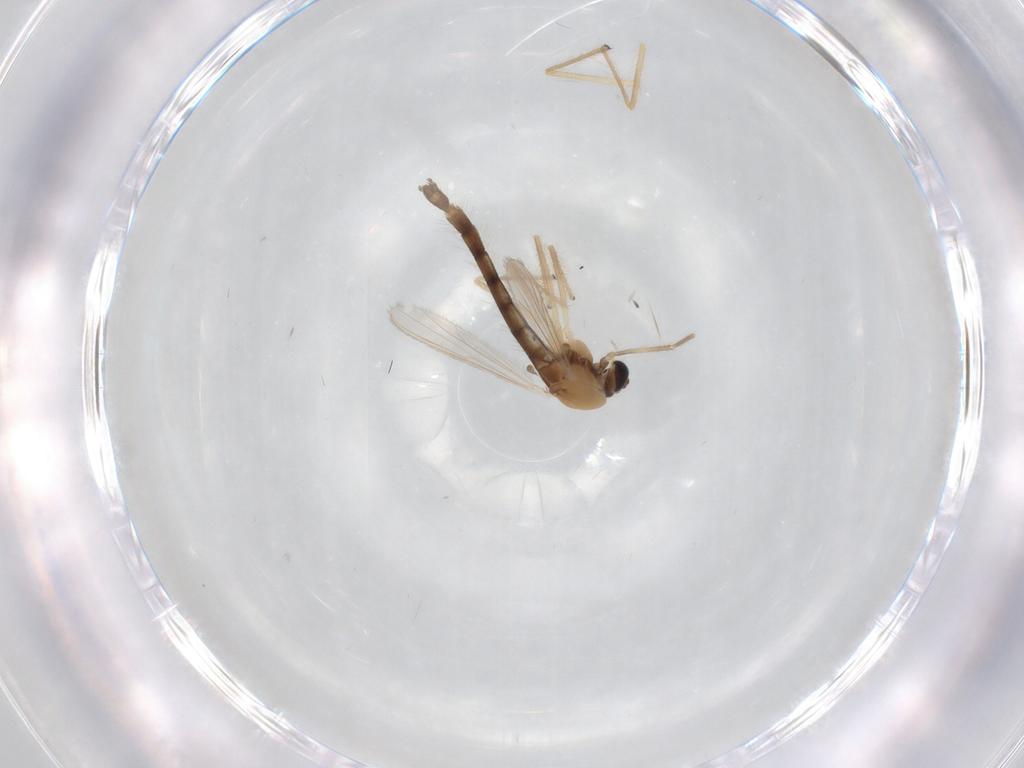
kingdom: Animalia
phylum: Arthropoda
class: Insecta
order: Diptera
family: Chironomidae
